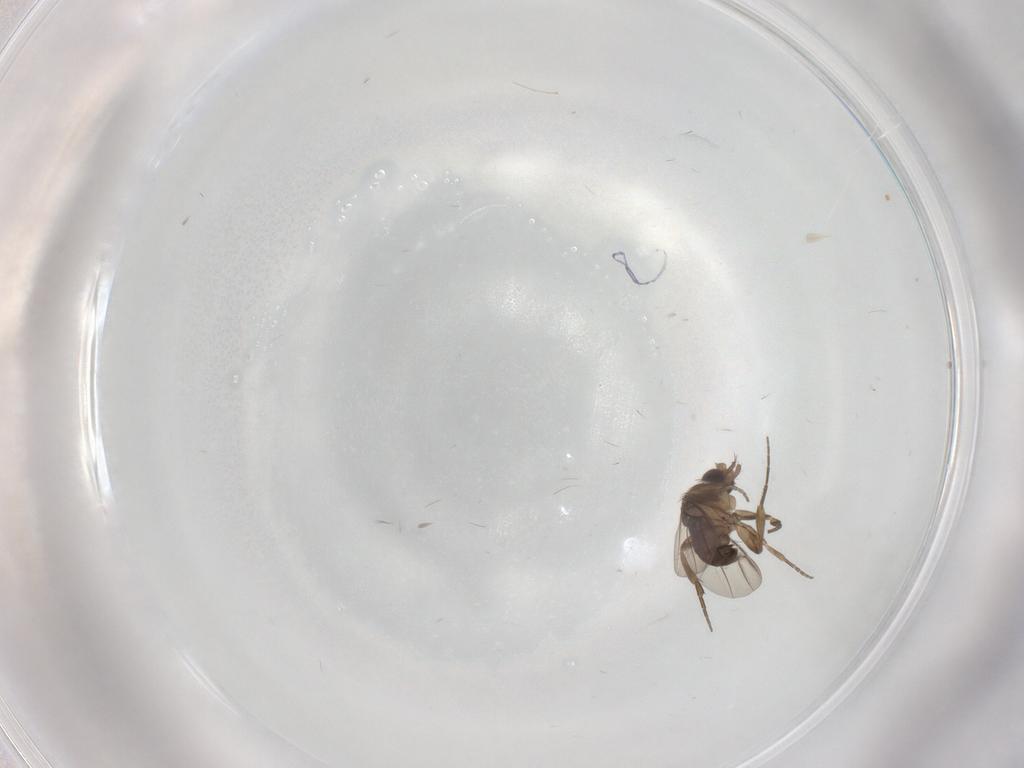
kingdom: Animalia
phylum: Arthropoda
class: Insecta
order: Diptera
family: Phoridae
